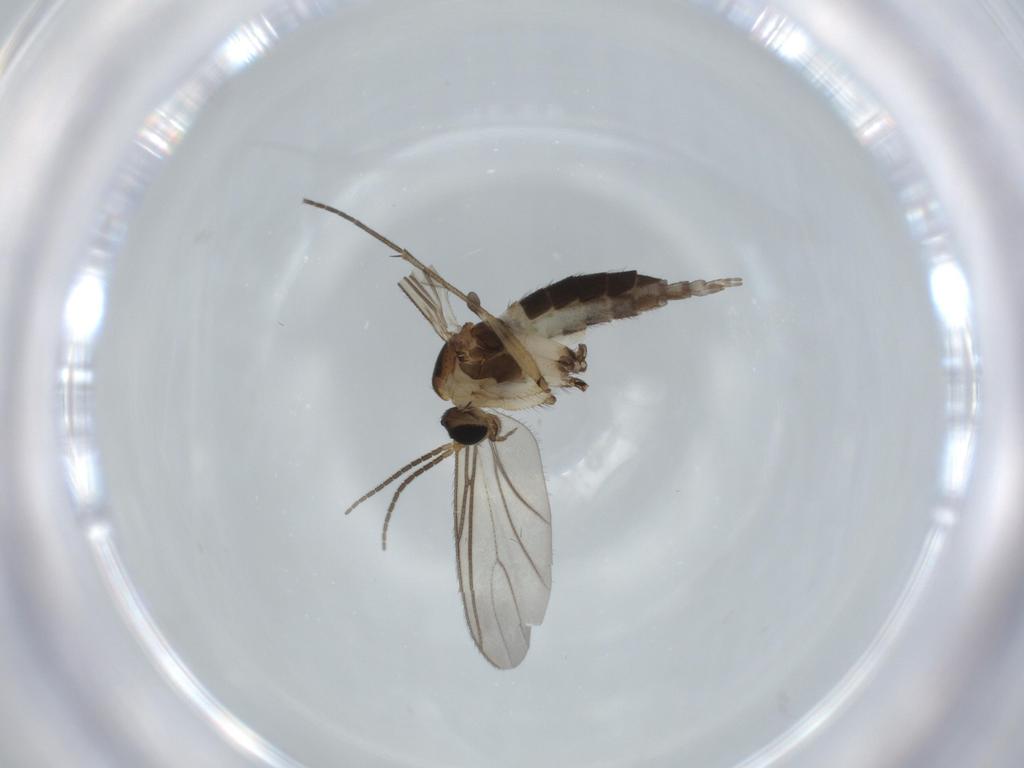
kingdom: Animalia
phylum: Arthropoda
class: Insecta
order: Diptera
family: Sciaridae
